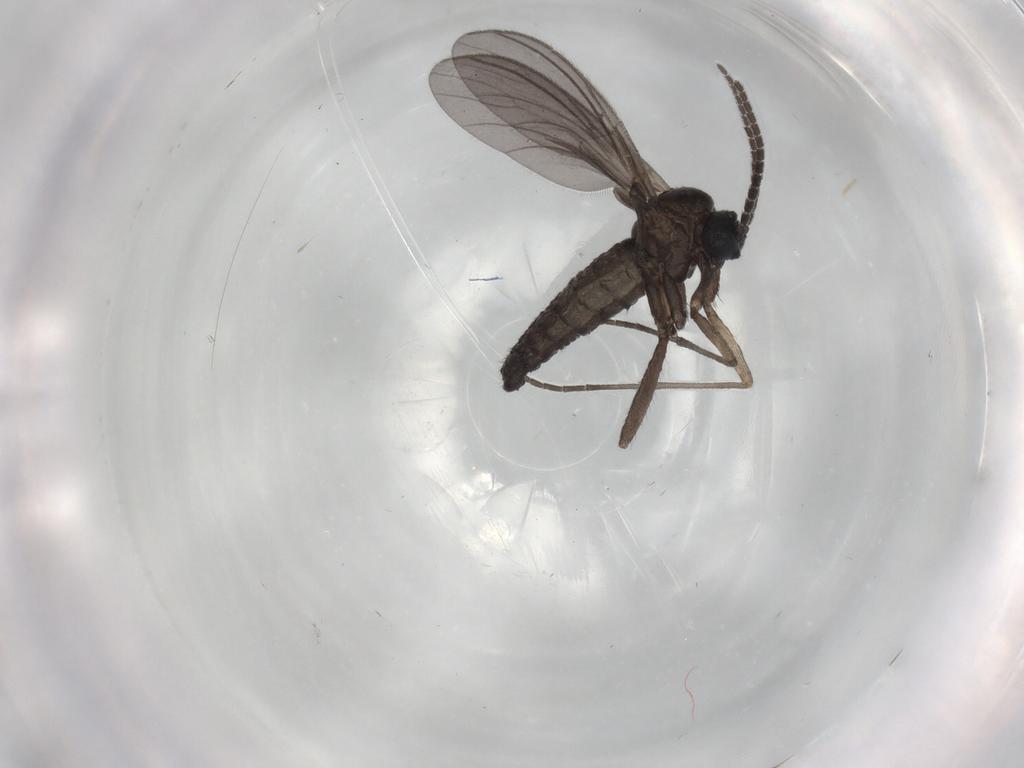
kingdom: Animalia
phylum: Arthropoda
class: Insecta
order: Diptera
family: Sciaridae
